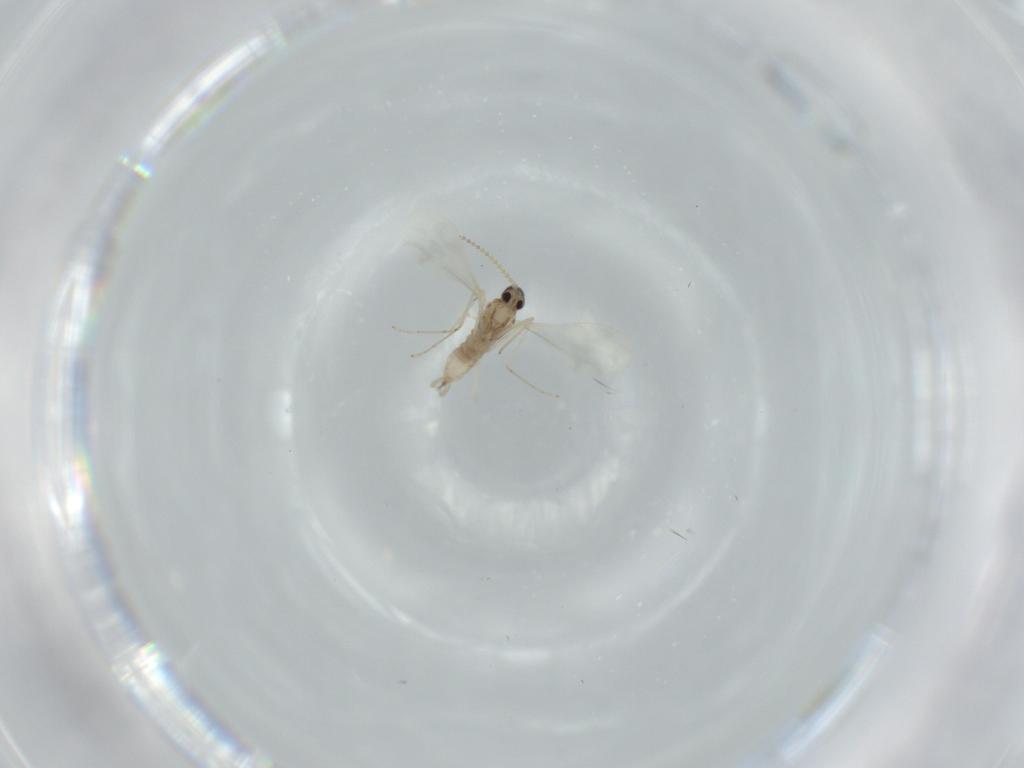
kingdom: Animalia
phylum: Arthropoda
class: Insecta
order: Diptera
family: Cecidomyiidae
